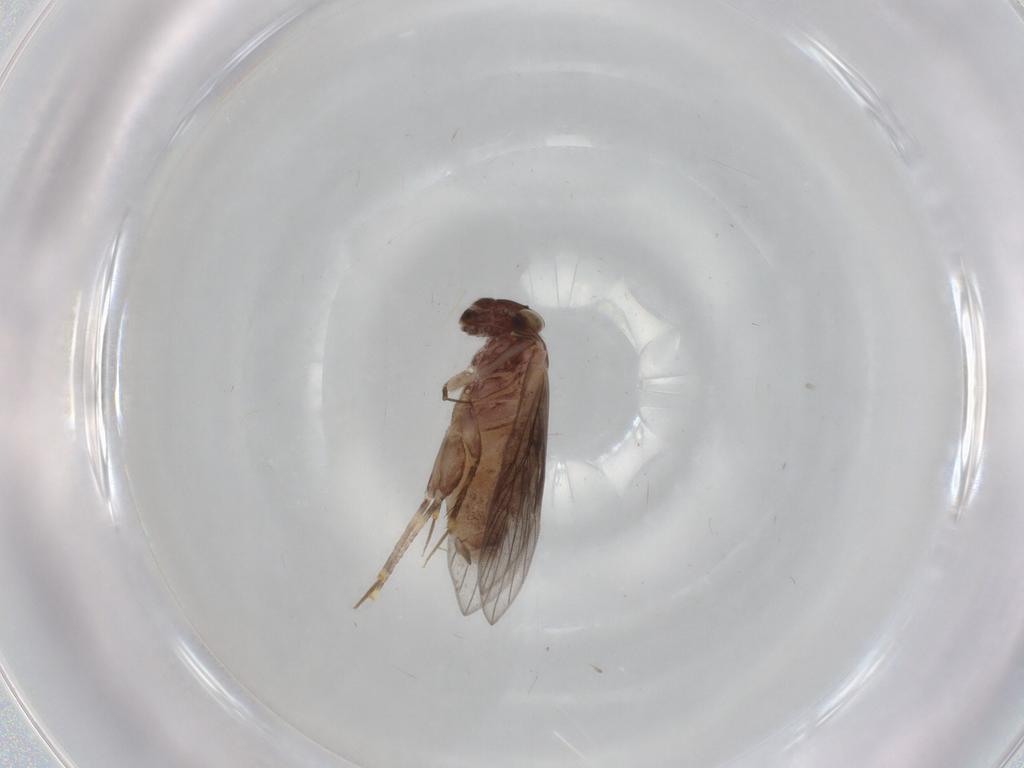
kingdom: Animalia
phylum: Arthropoda
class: Insecta
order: Psocodea
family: Lepidopsocidae
